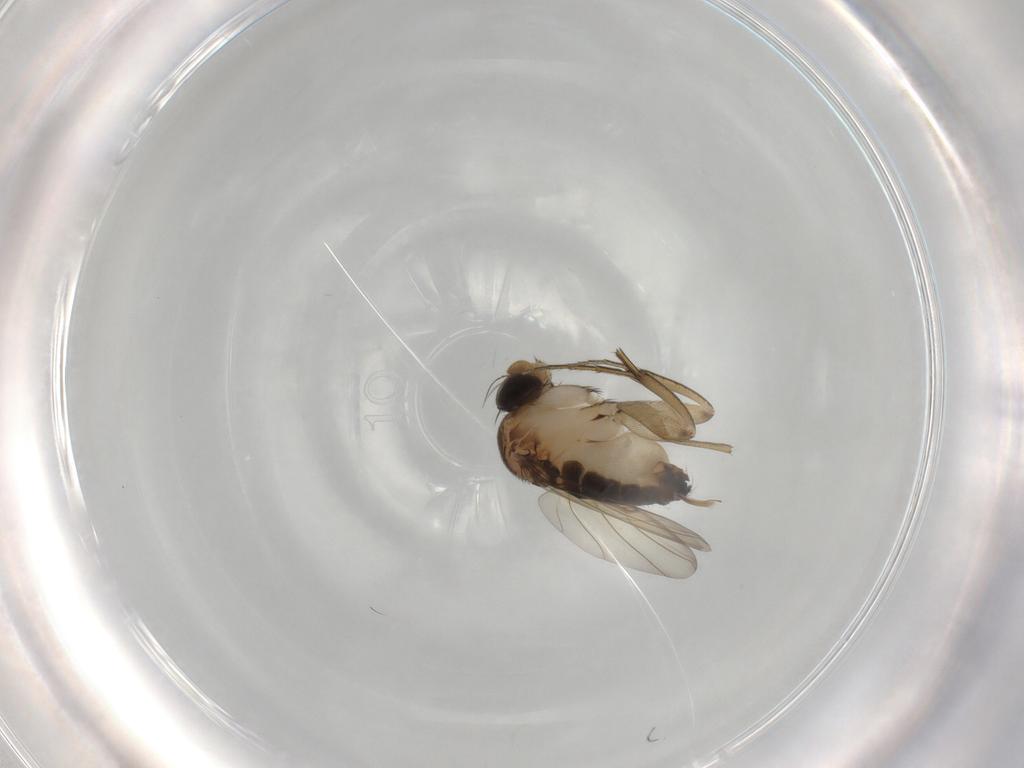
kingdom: Animalia
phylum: Arthropoda
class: Insecta
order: Diptera
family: Phoridae
